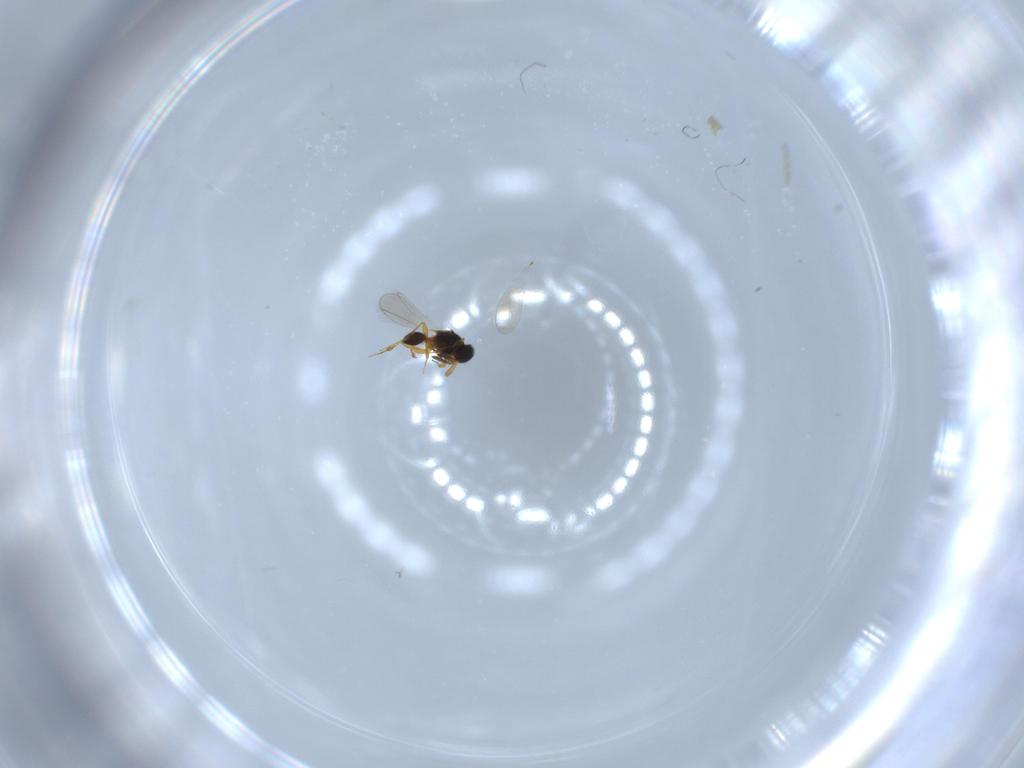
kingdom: Animalia
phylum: Arthropoda
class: Insecta
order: Hymenoptera
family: Platygastridae
